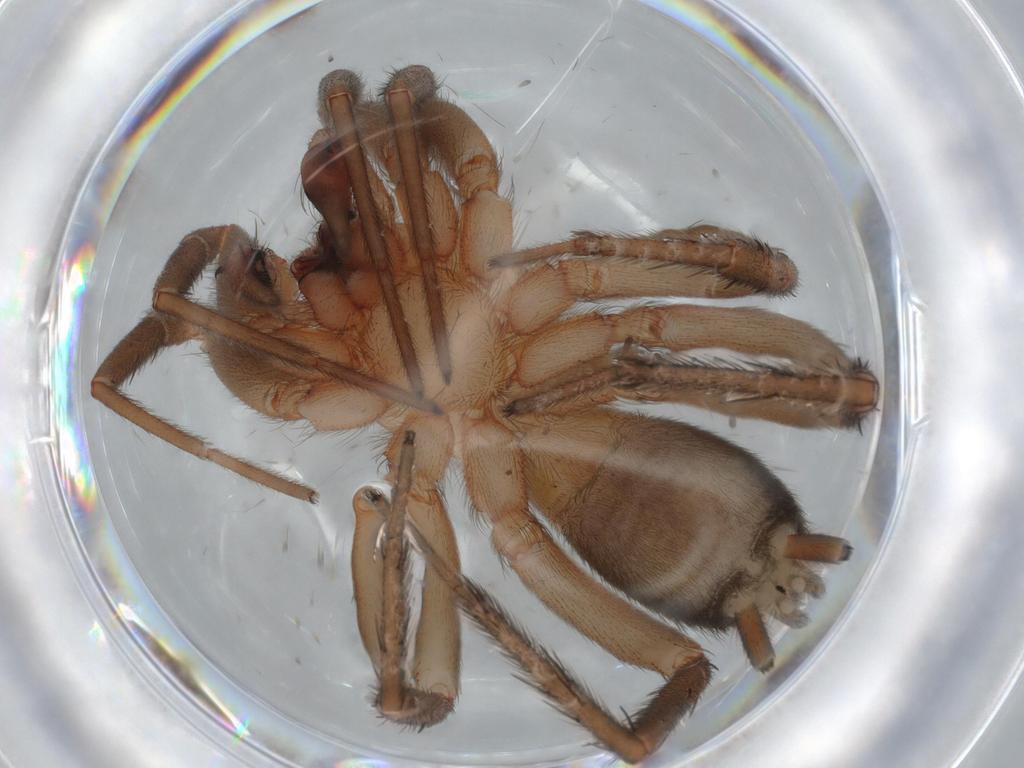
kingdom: Animalia
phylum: Arthropoda
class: Arachnida
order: Araneae
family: Gnaphosidae
